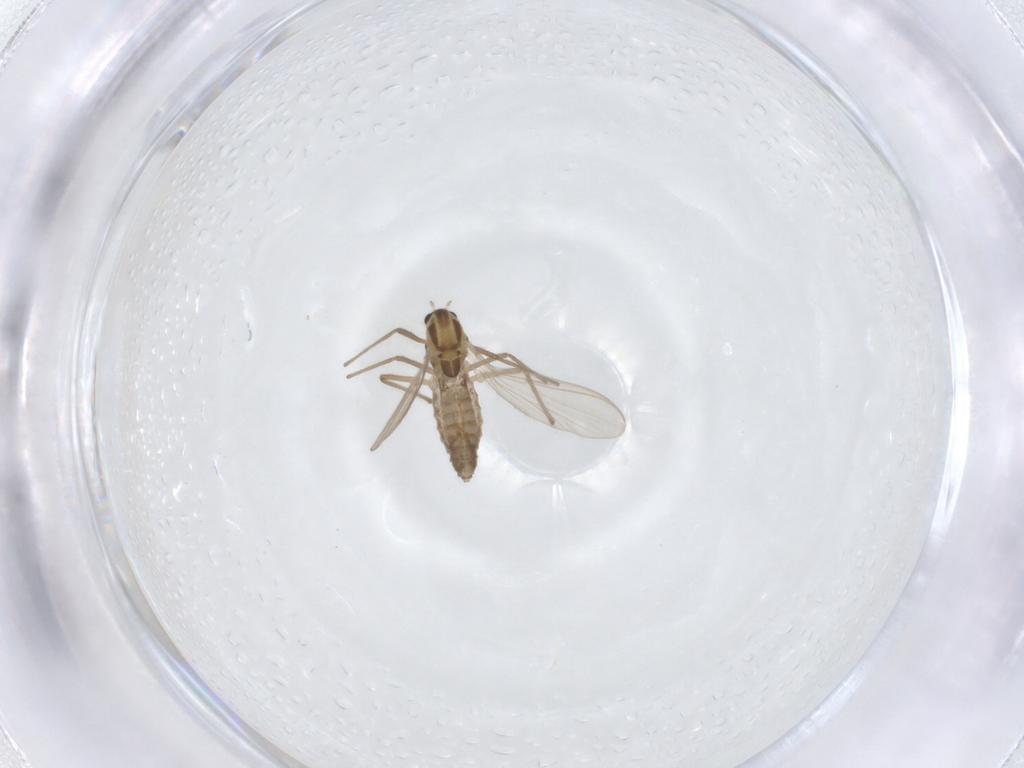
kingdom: Animalia
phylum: Arthropoda
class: Insecta
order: Diptera
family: Chironomidae
